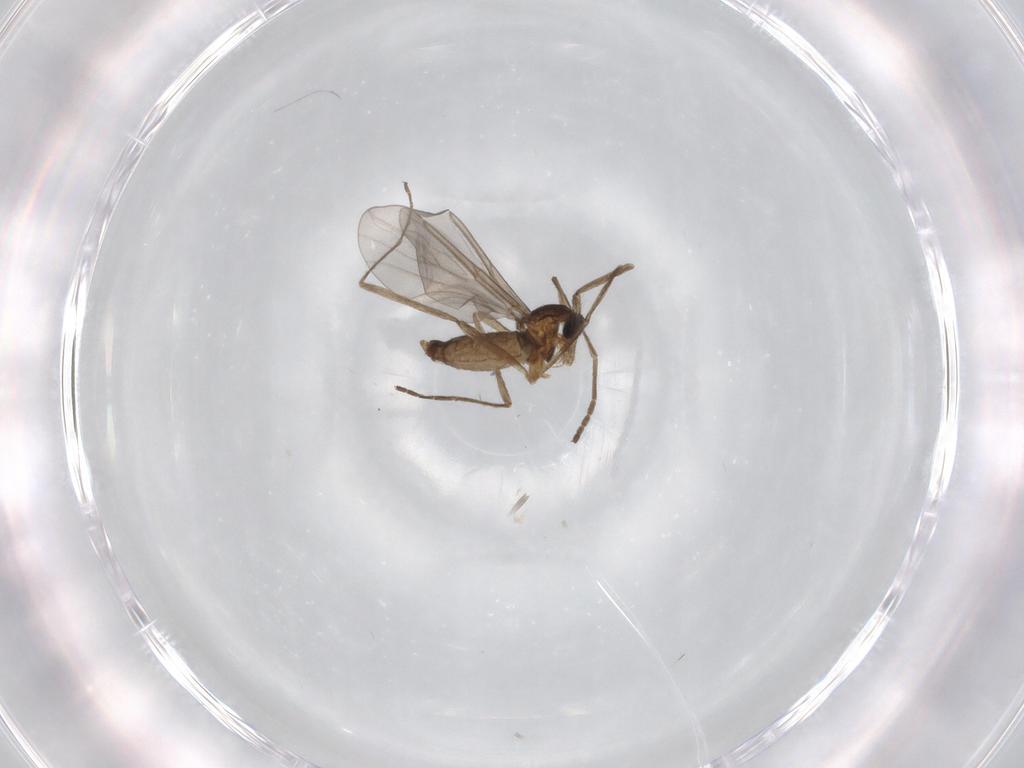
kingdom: Animalia
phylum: Arthropoda
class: Insecta
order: Diptera
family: Cecidomyiidae
